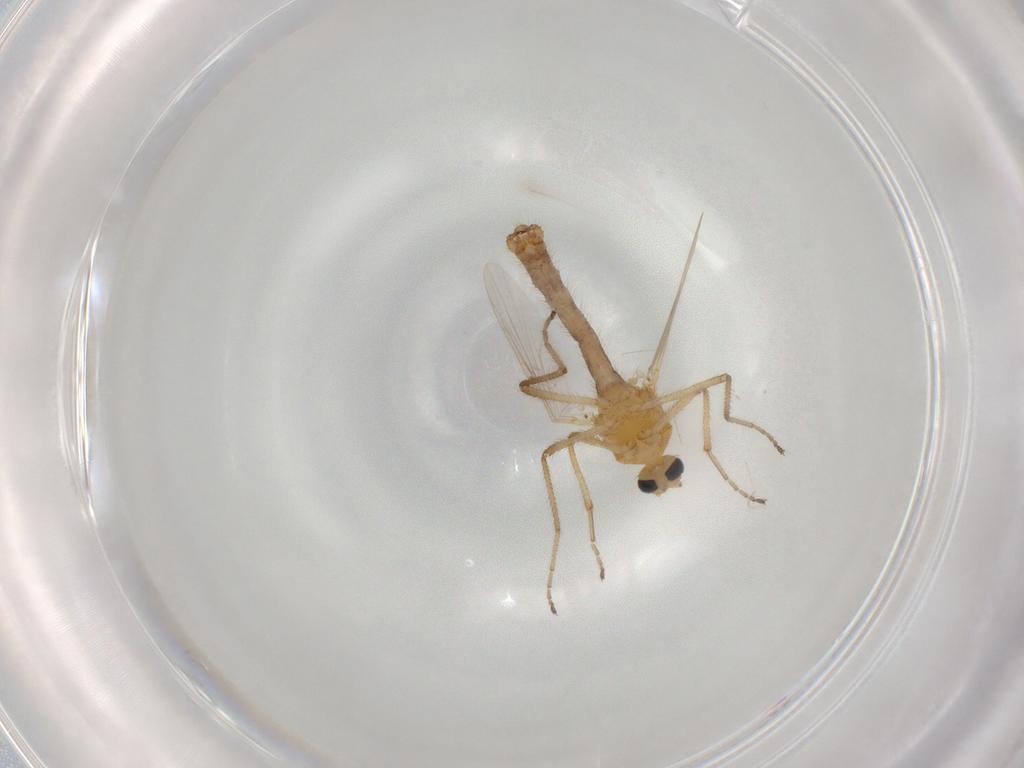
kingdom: Animalia
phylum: Arthropoda
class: Insecta
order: Diptera
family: Ceratopogonidae
